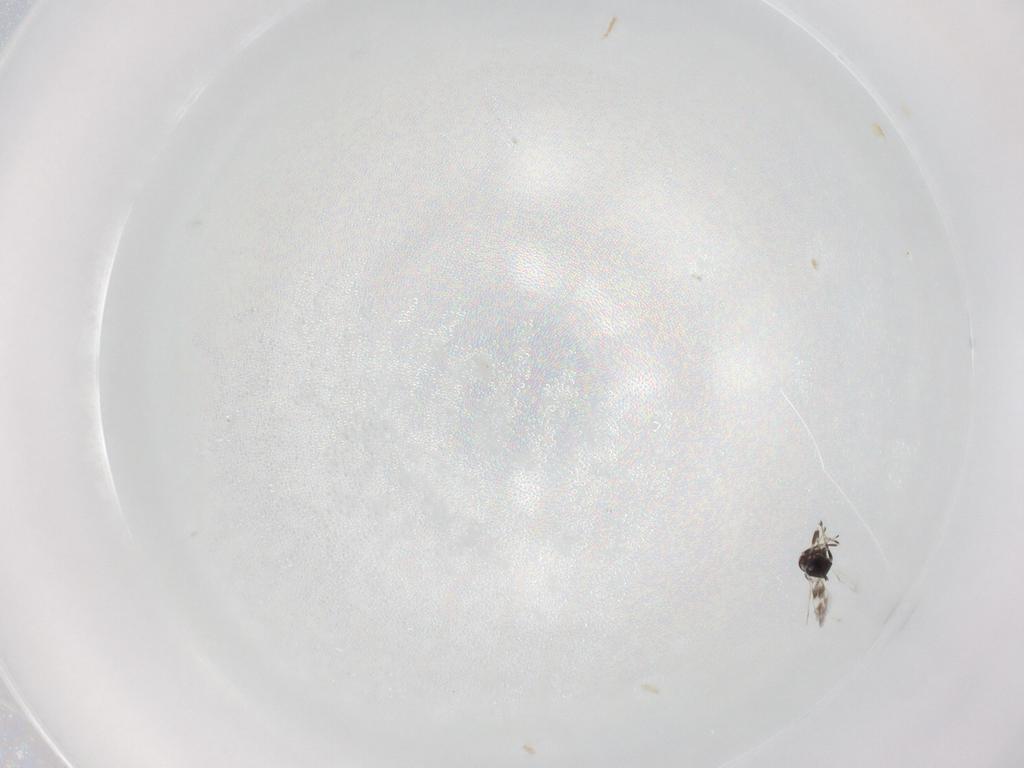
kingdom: Animalia
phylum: Arthropoda
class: Insecta
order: Hymenoptera
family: Azotidae
